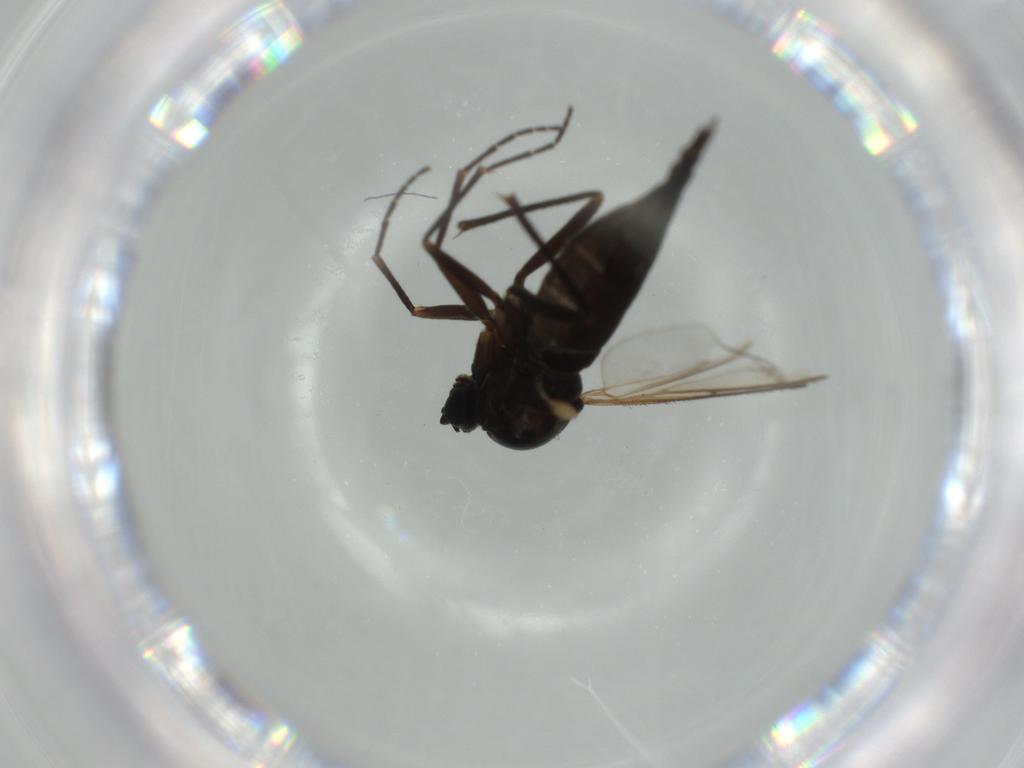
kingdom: Animalia
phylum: Arthropoda
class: Insecta
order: Diptera
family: Sciaridae
